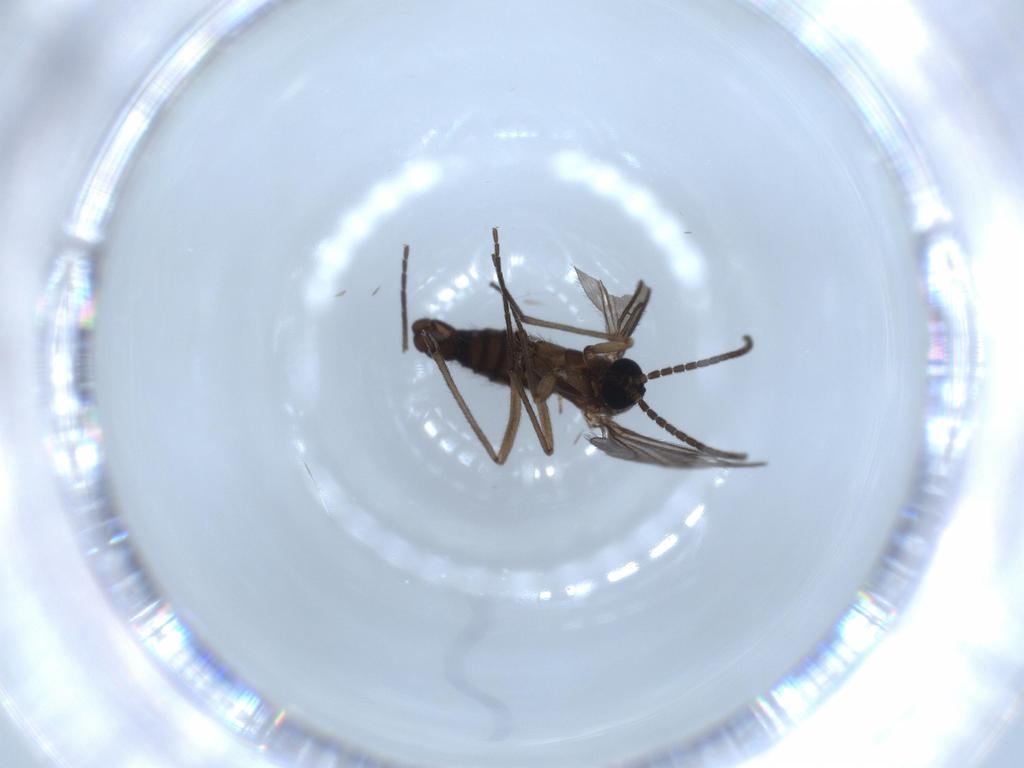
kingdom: Animalia
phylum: Arthropoda
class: Insecta
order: Diptera
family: Sciaridae
